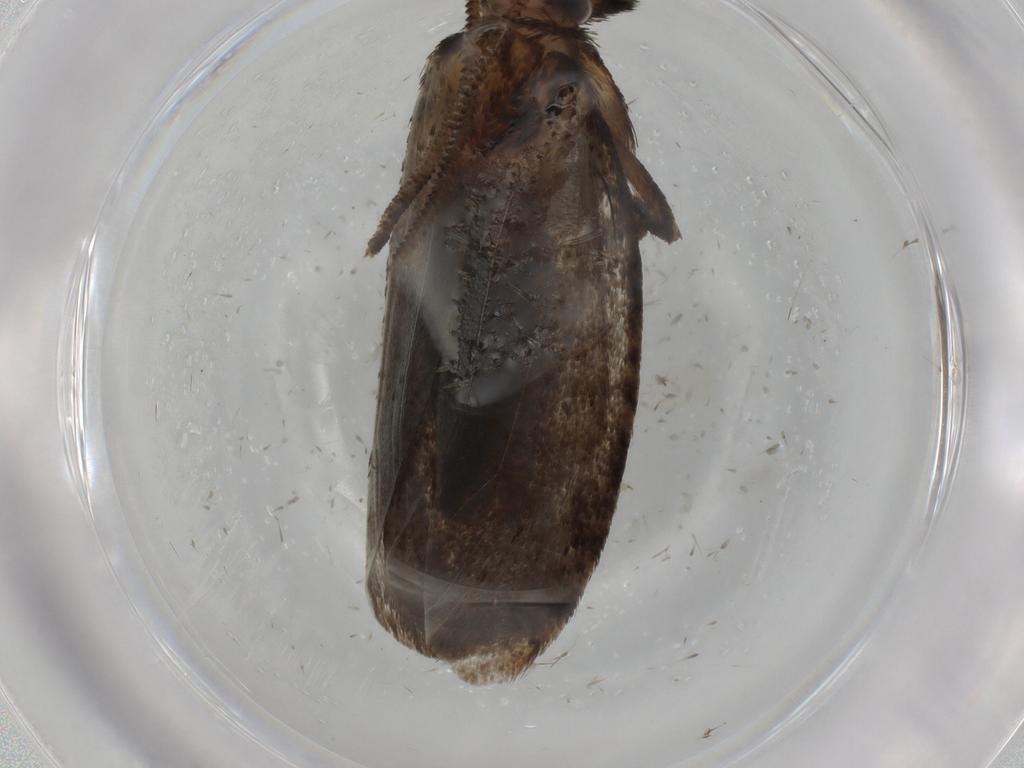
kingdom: Animalia
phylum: Arthropoda
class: Insecta
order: Lepidoptera
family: Tineidae
